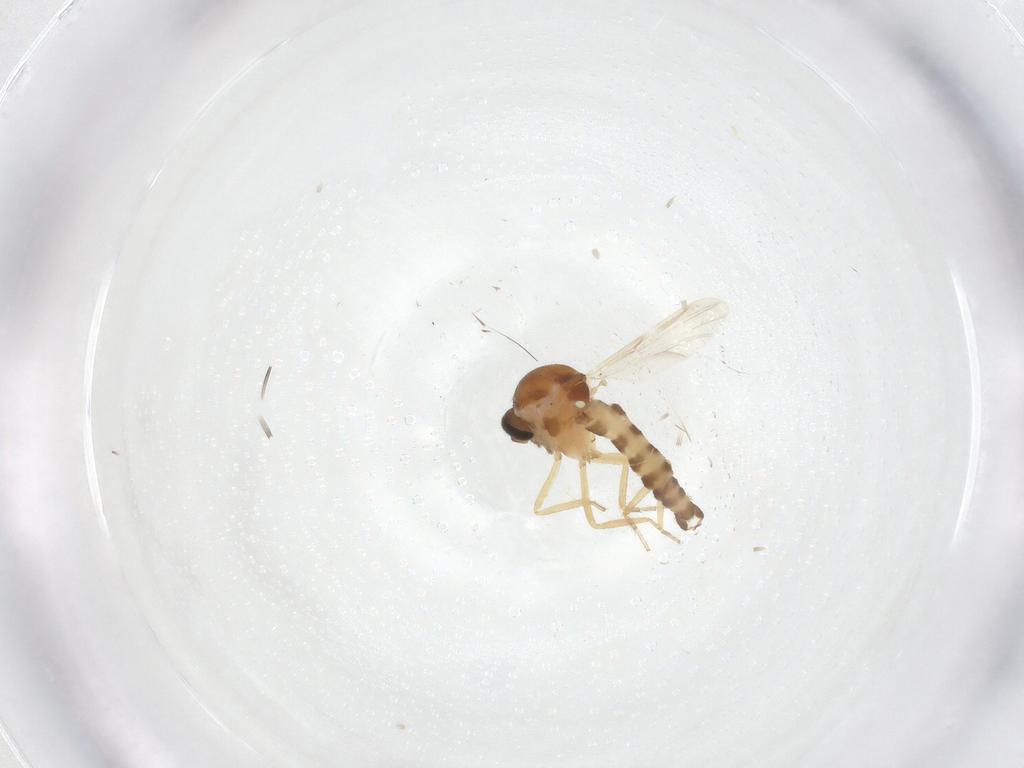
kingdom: Animalia
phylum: Arthropoda
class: Insecta
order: Diptera
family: Ceratopogonidae
